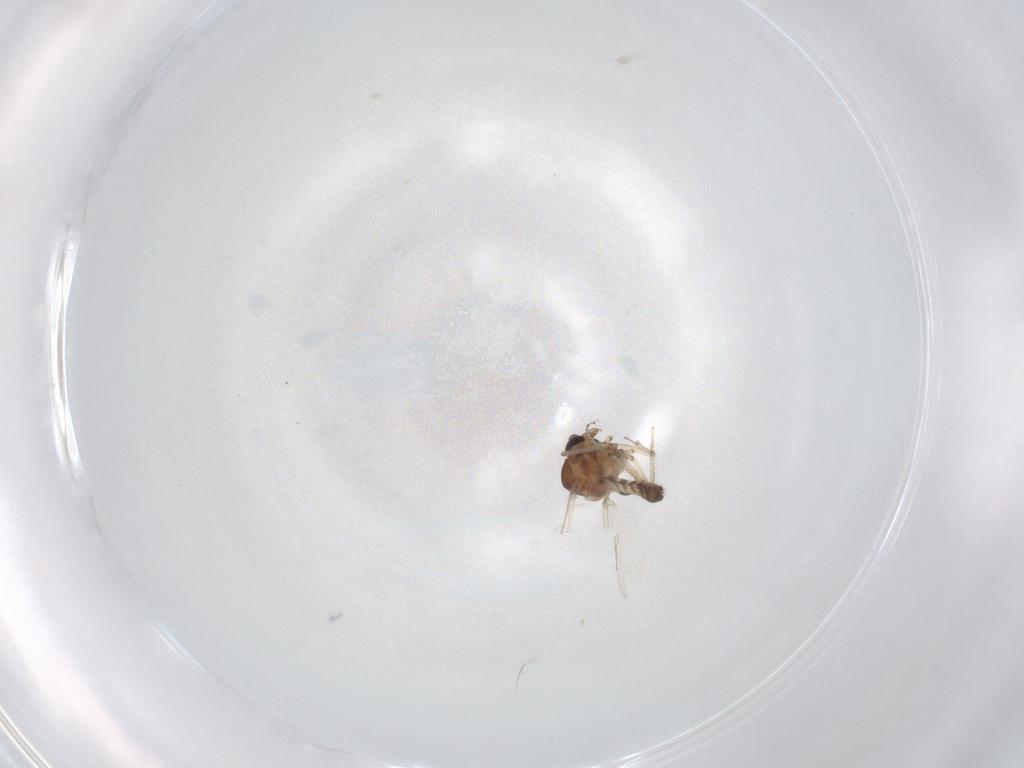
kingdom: Animalia
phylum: Arthropoda
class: Insecta
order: Diptera
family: Ceratopogonidae
